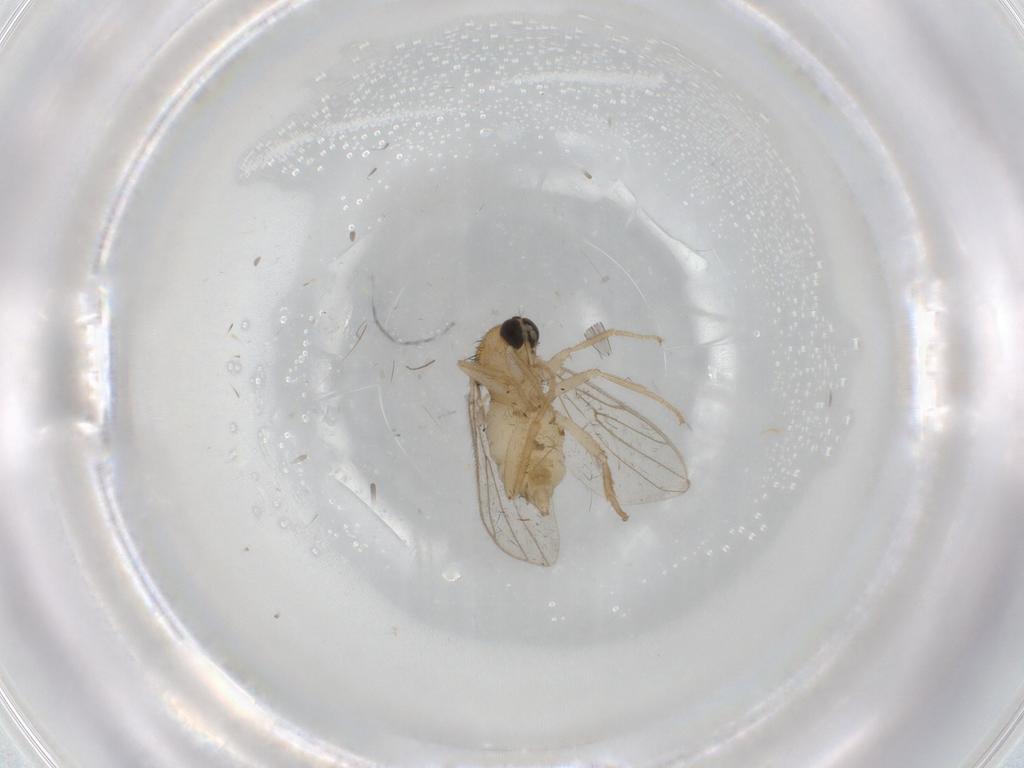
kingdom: Animalia
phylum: Arthropoda
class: Insecta
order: Diptera
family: Hybotidae
